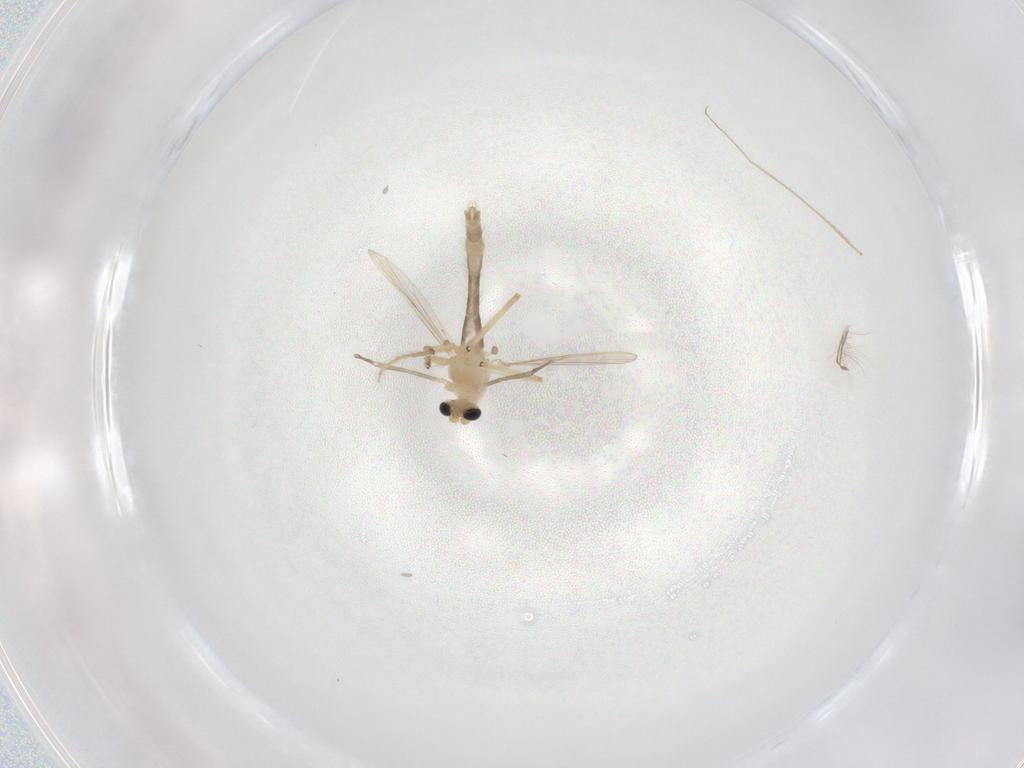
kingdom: Animalia
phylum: Arthropoda
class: Insecta
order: Diptera
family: Chironomidae
